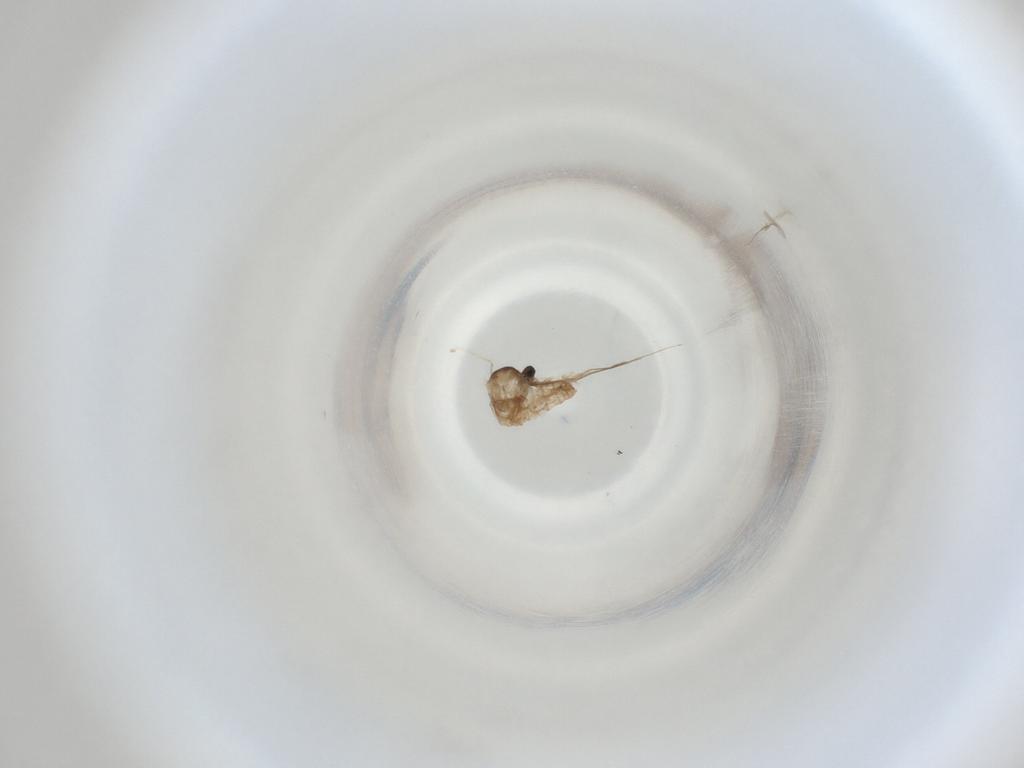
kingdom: Animalia
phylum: Arthropoda
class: Insecta
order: Diptera
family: Cecidomyiidae
